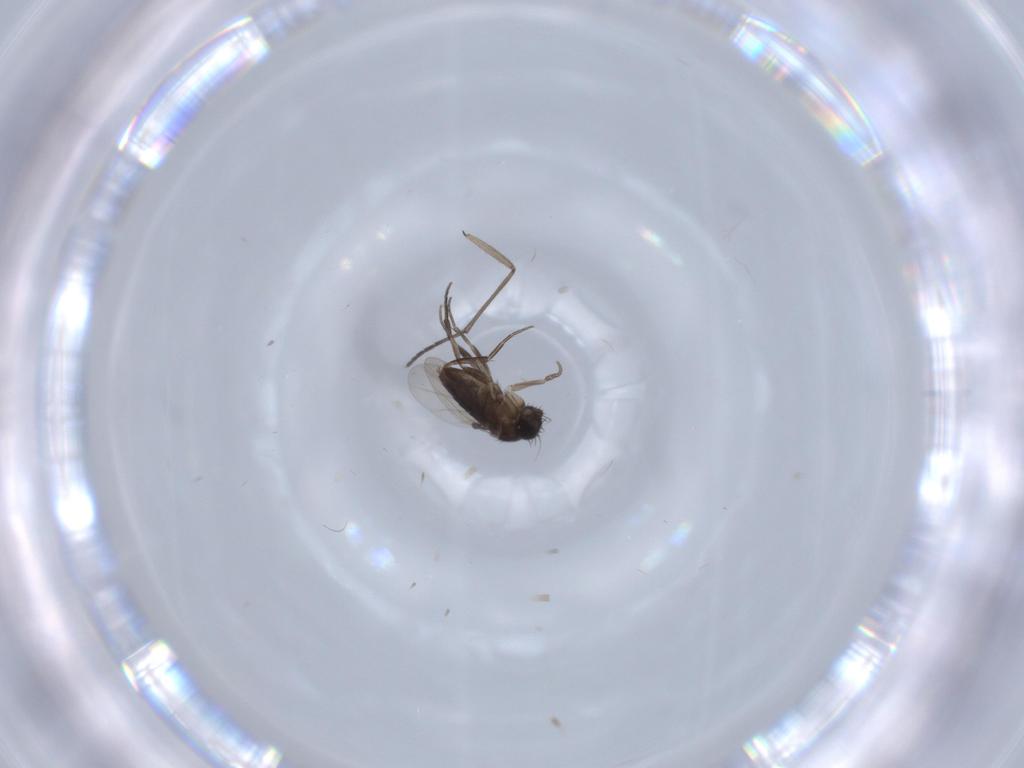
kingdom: Animalia
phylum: Arthropoda
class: Insecta
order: Diptera
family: Phoridae
